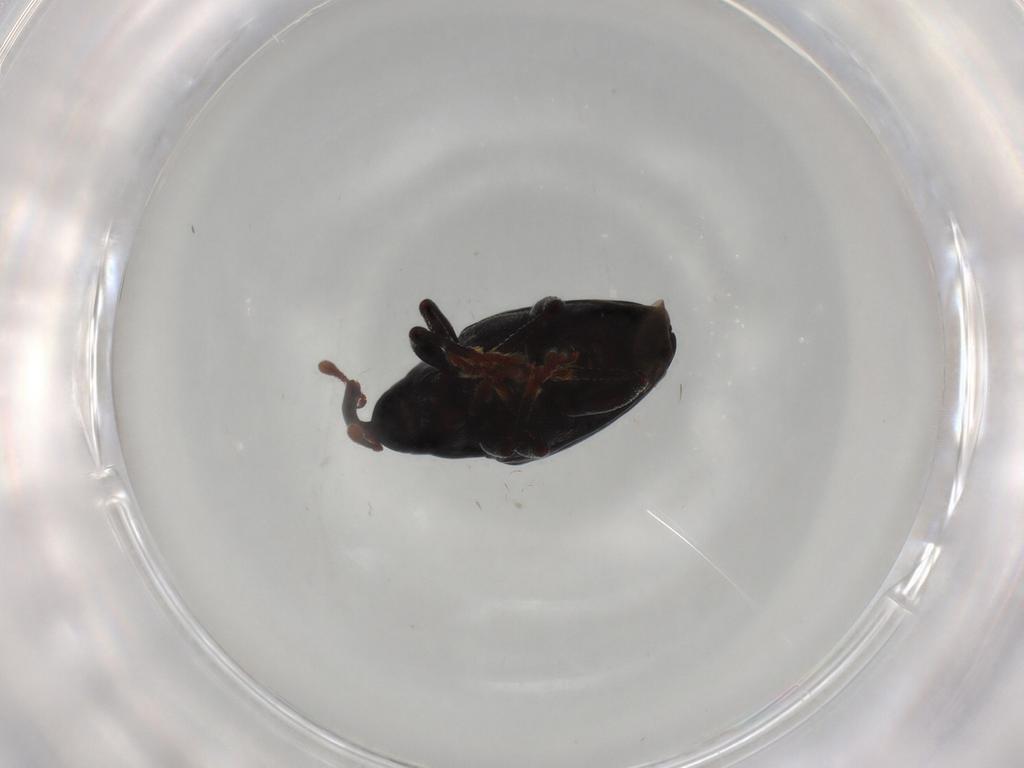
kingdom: Animalia
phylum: Arthropoda
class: Insecta
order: Coleoptera
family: Curculionidae
